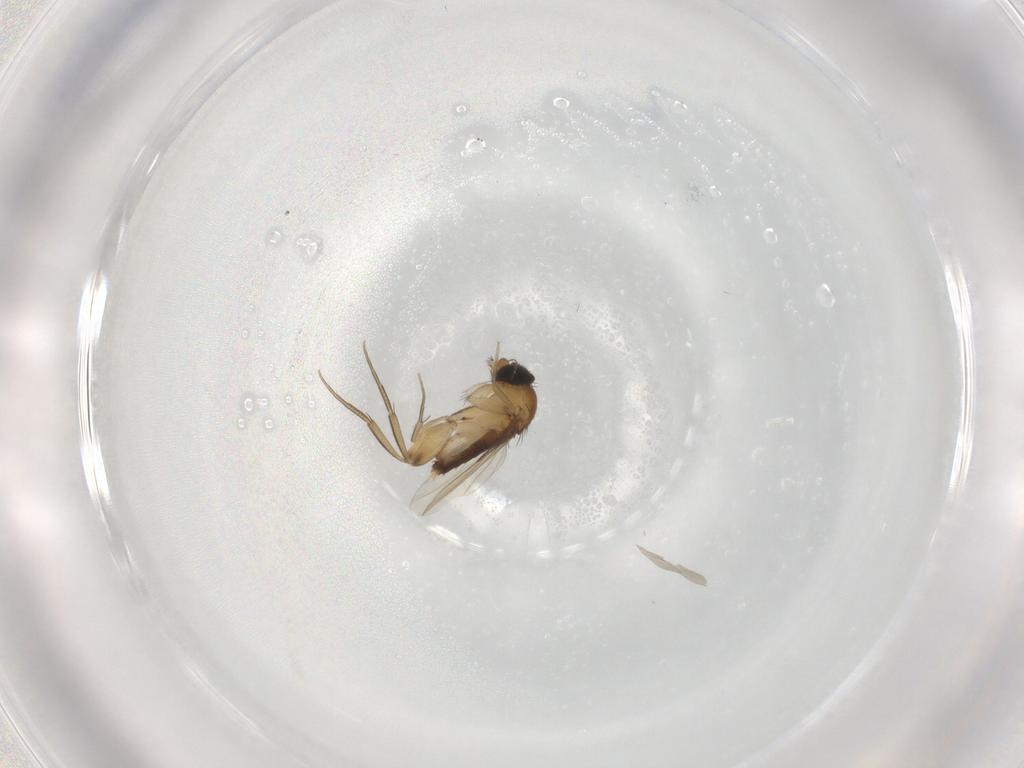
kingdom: Animalia
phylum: Arthropoda
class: Insecta
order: Diptera
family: Phoridae
